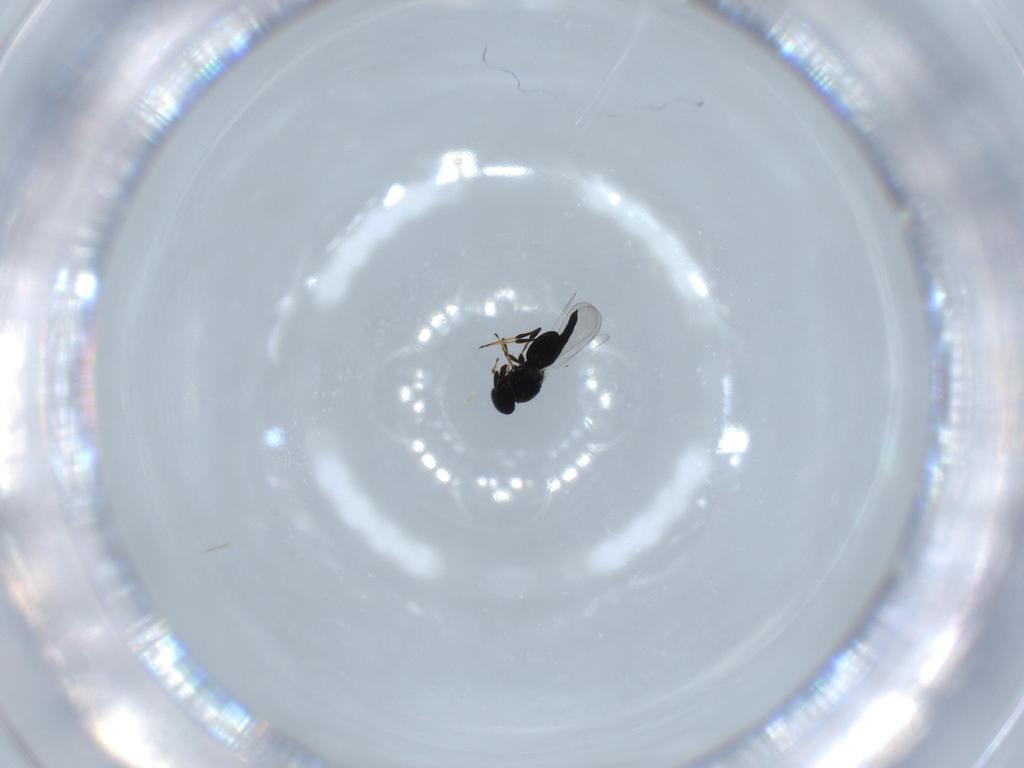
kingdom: Animalia
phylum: Arthropoda
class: Insecta
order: Hymenoptera
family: Platygastridae
